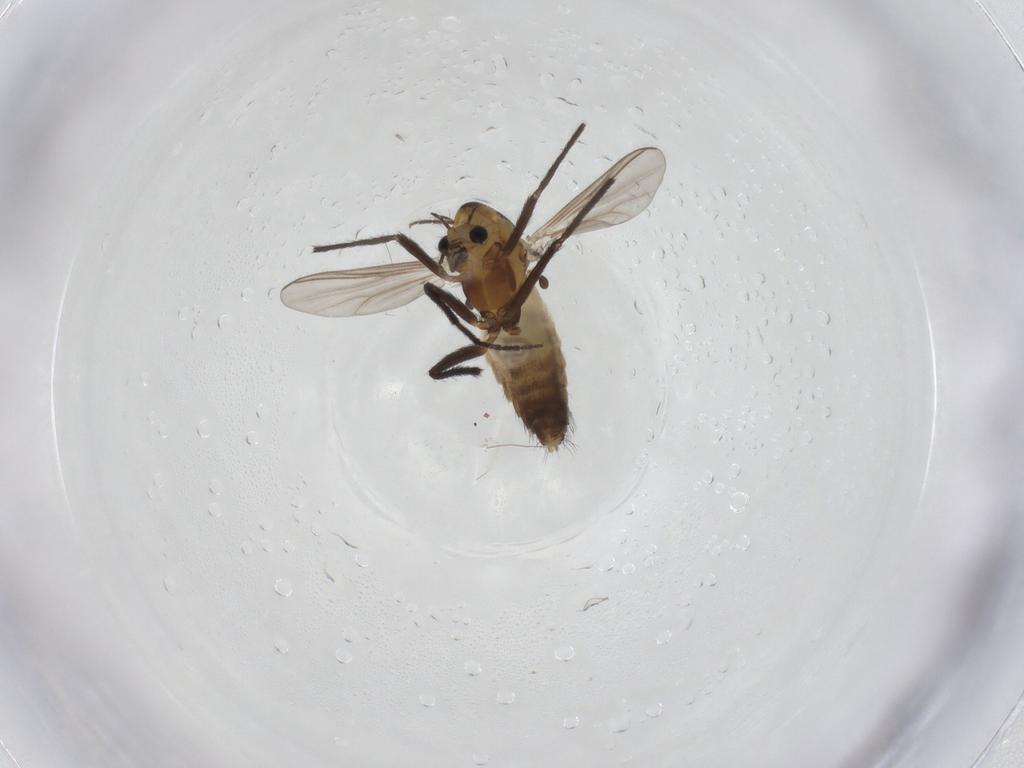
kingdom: Animalia
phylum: Arthropoda
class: Insecta
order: Diptera
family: Chironomidae
